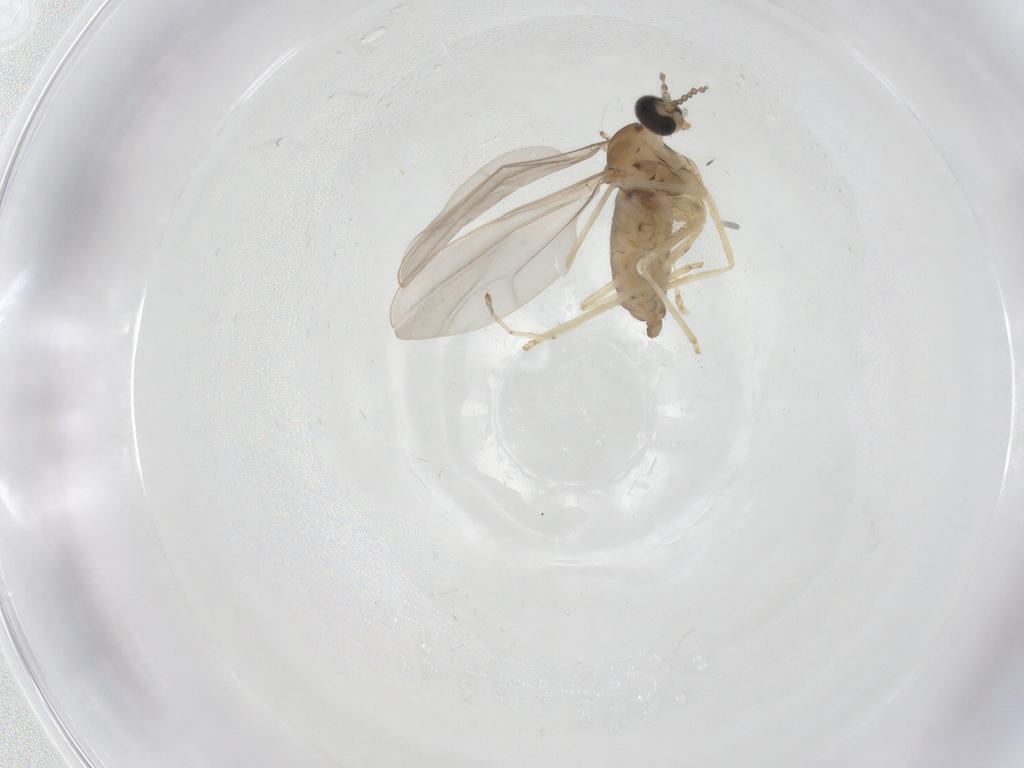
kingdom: Animalia
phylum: Arthropoda
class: Insecta
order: Diptera
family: Cecidomyiidae
